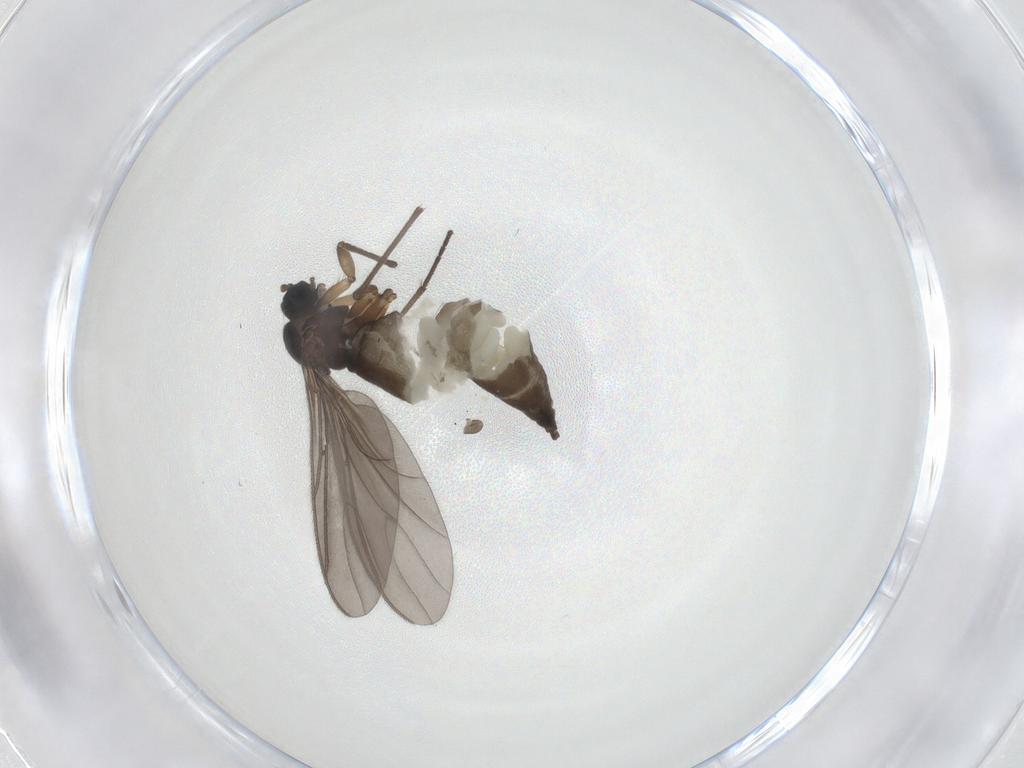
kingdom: Animalia
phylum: Arthropoda
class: Insecta
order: Diptera
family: Sciaridae
